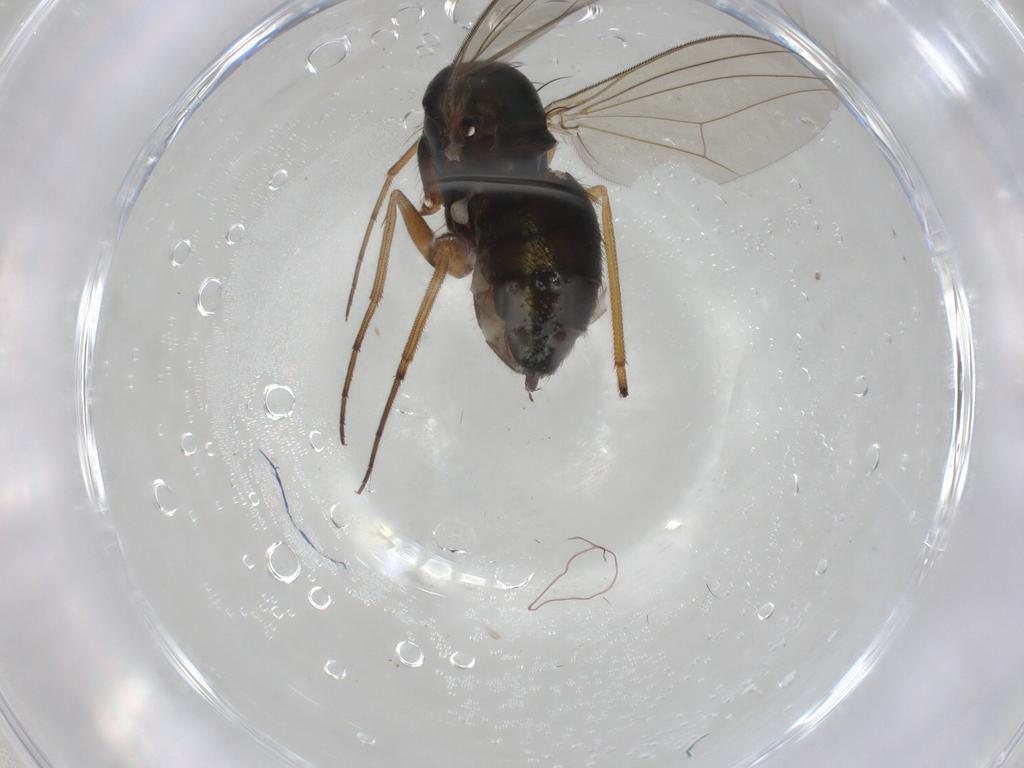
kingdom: Animalia
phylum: Arthropoda
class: Insecta
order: Diptera
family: Dolichopodidae
